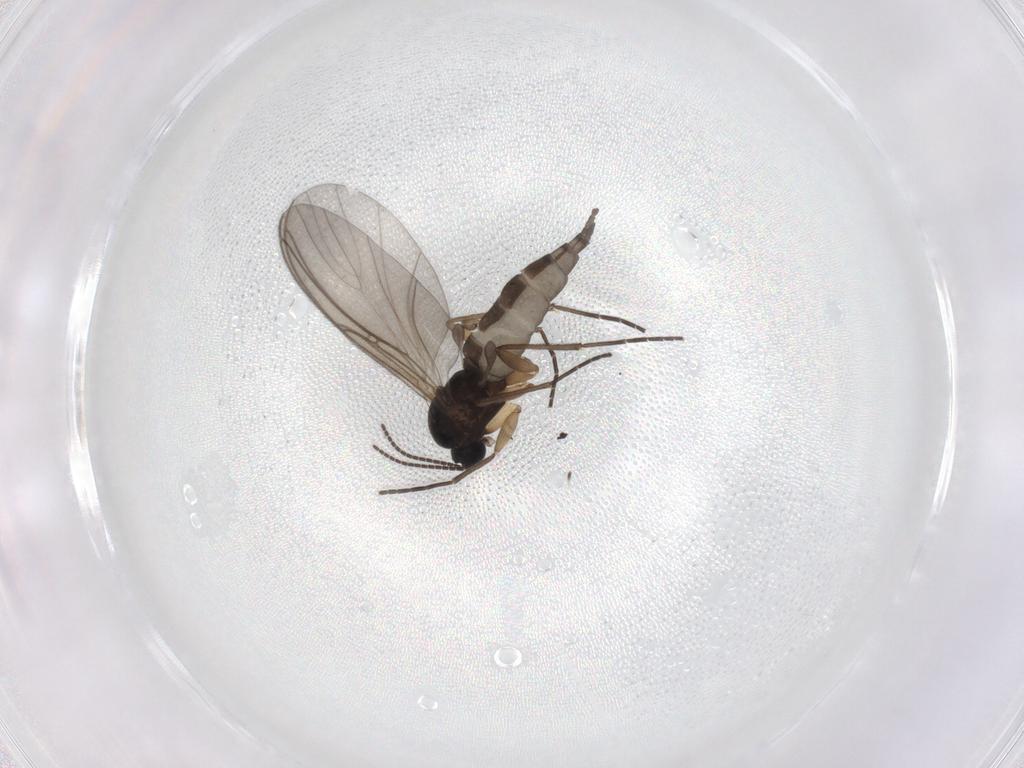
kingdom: Animalia
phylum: Arthropoda
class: Insecta
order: Diptera
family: Sciaridae
